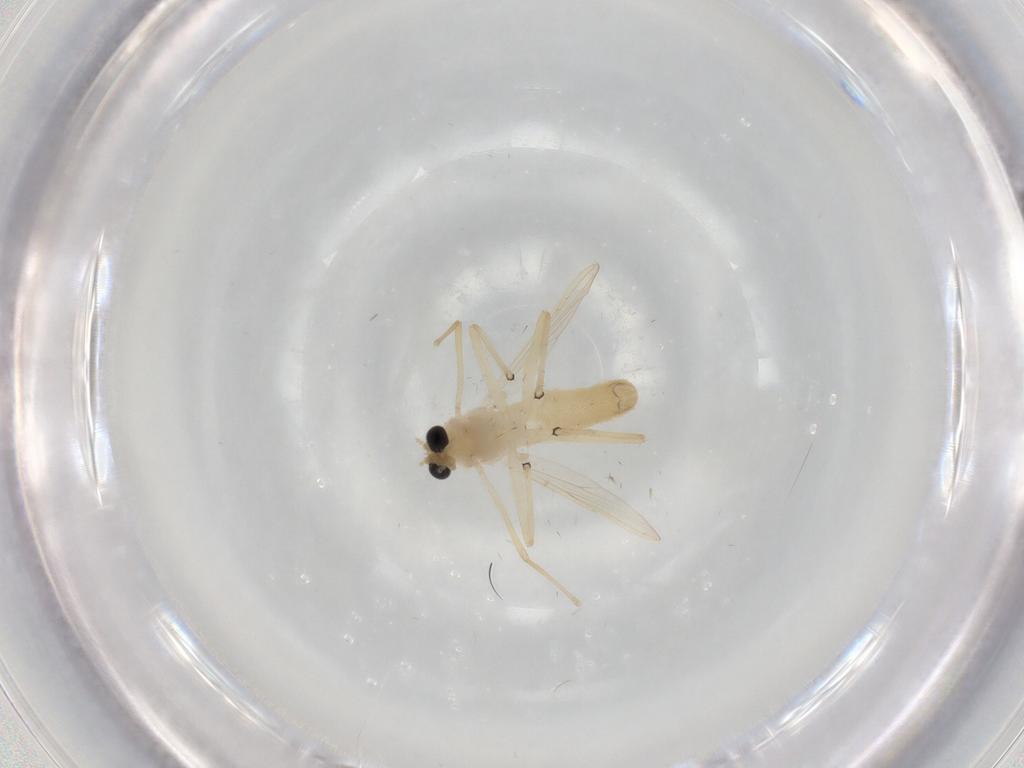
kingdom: Animalia
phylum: Arthropoda
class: Insecta
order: Diptera
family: Chironomidae
